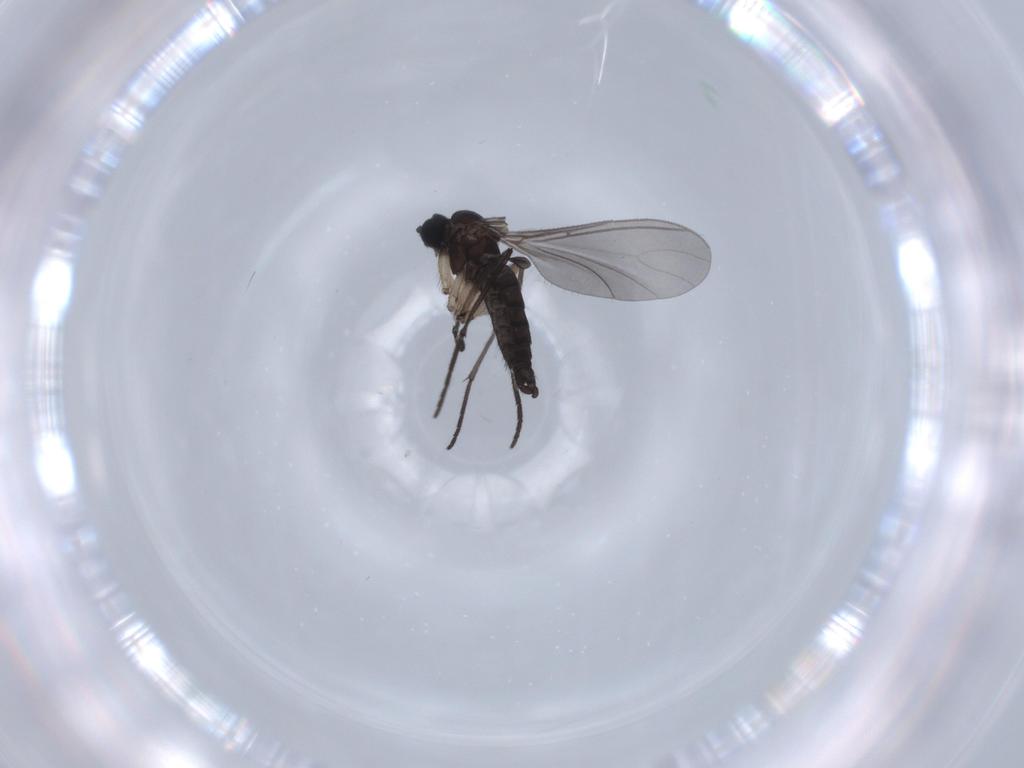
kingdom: Animalia
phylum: Arthropoda
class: Insecta
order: Diptera
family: Sciaridae
